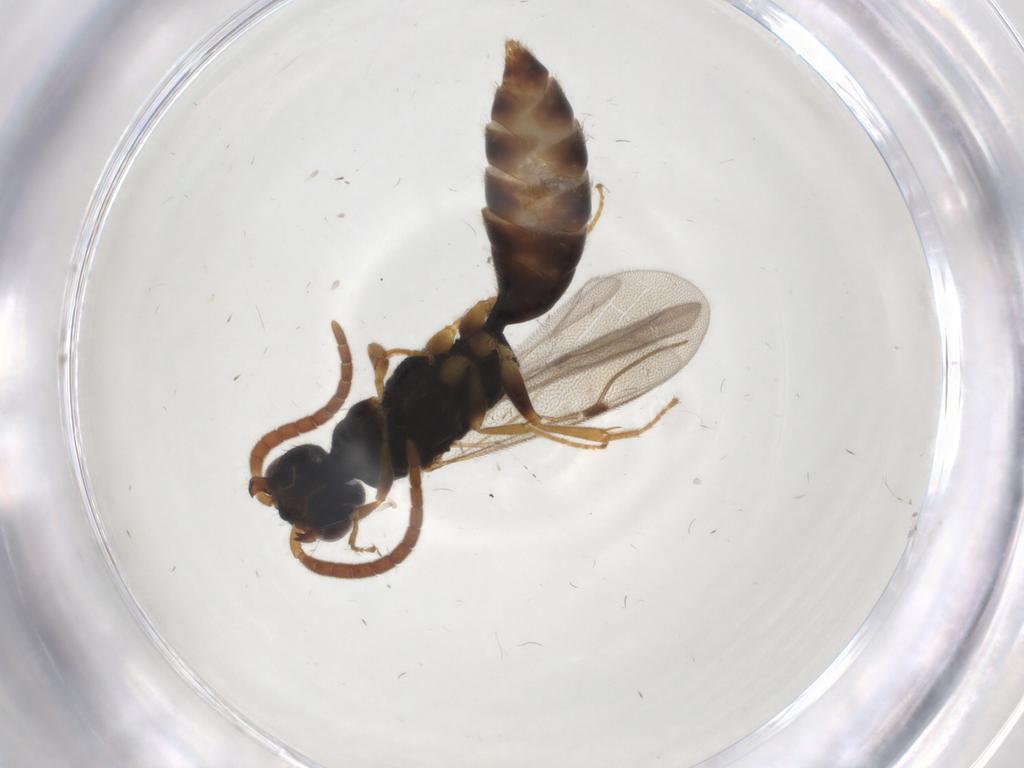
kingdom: Animalia
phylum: Arthropoda
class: Insecta
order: Hymenoptera
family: Bethylidae
